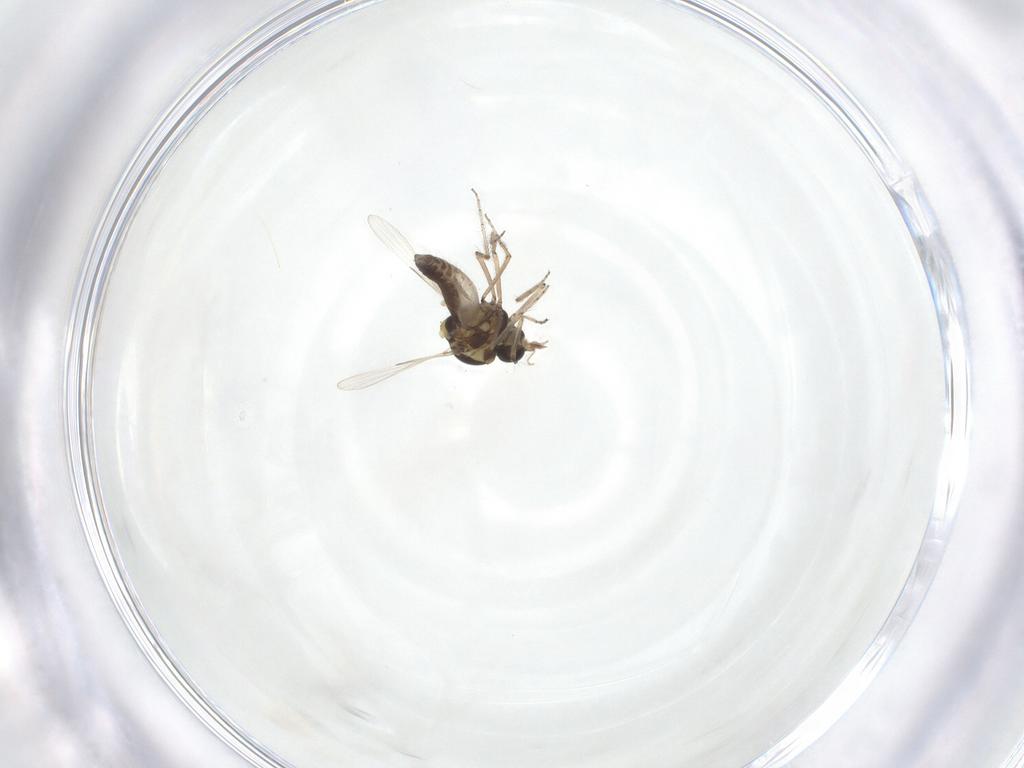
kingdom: Animalia
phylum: Arthropoda
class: Insecta
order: Diptera
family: Ceratopogonidae
